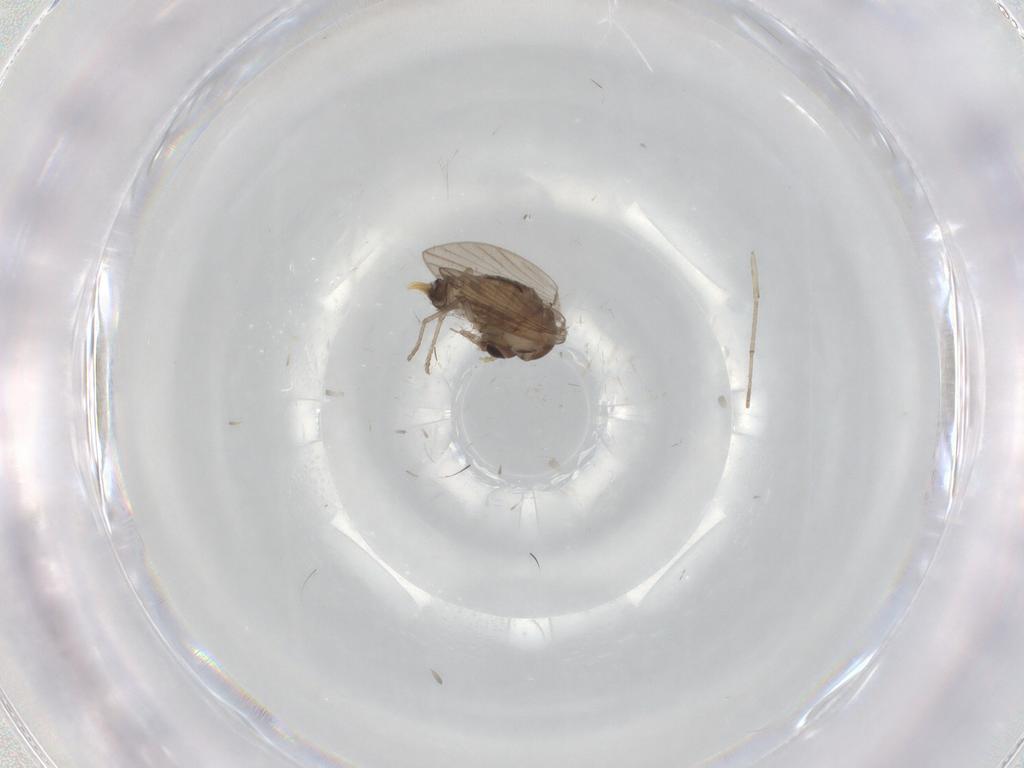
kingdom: Animalia
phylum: Arthropoda
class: Insecta
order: Diptera
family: Psychodidae
